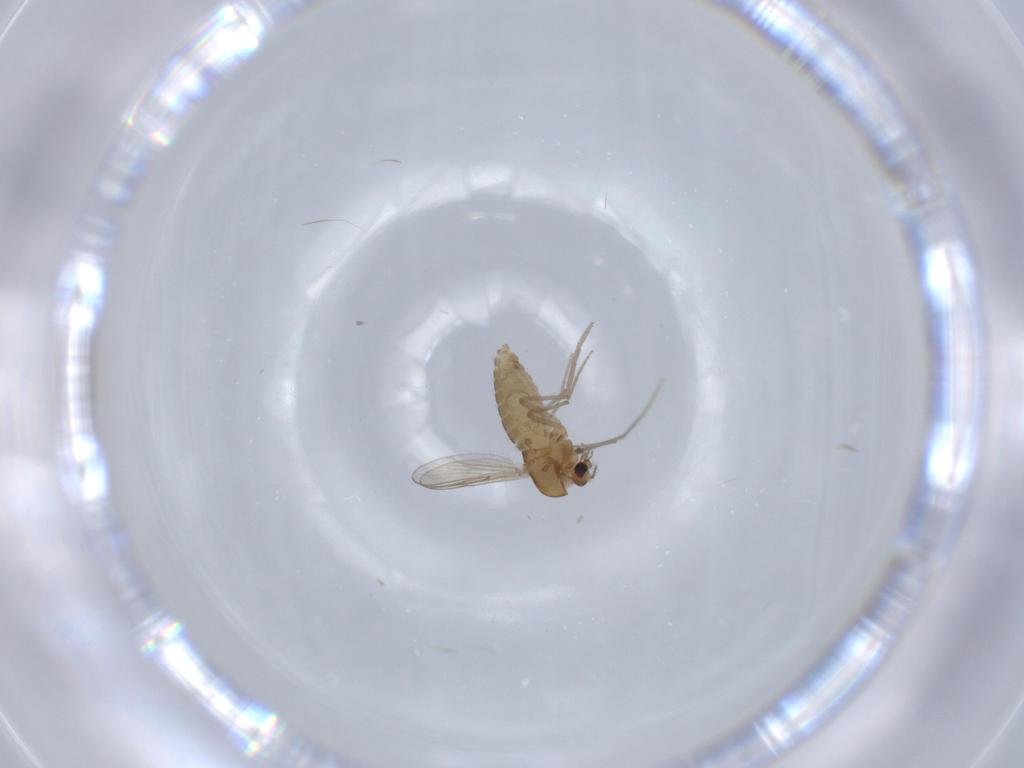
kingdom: Animalia
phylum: Arthropoda
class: Insecta
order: Diptera
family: Chironomidae
